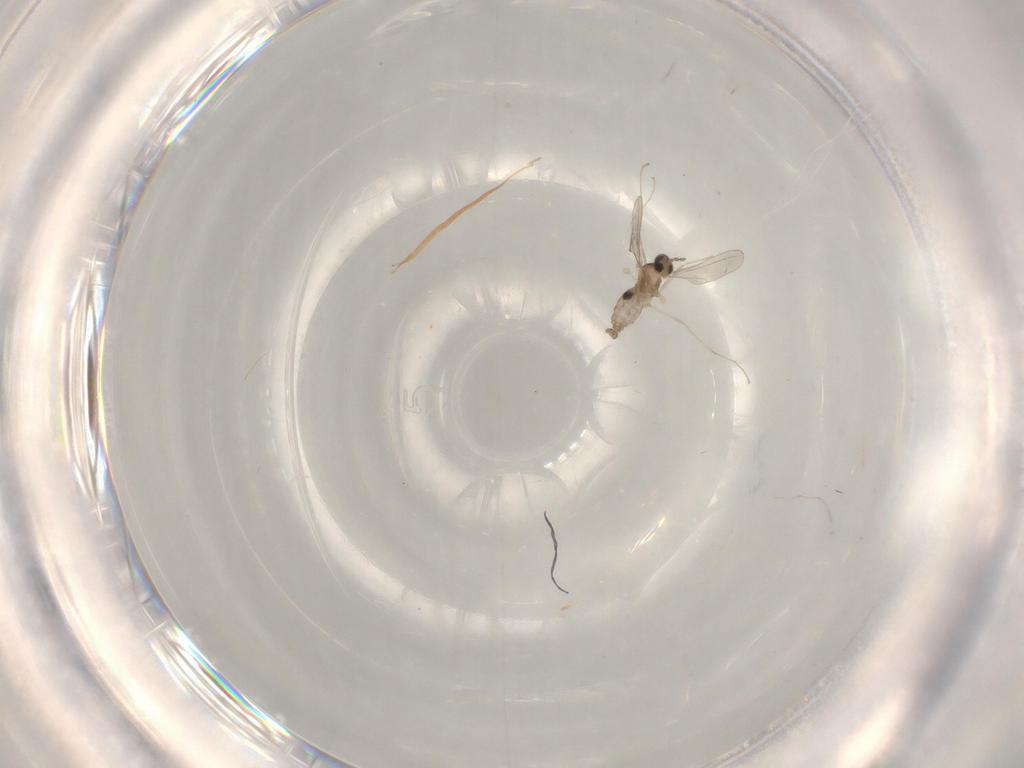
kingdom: Animalia
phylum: Arthropoda
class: Insecta
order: Diptera
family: Chironomidae
